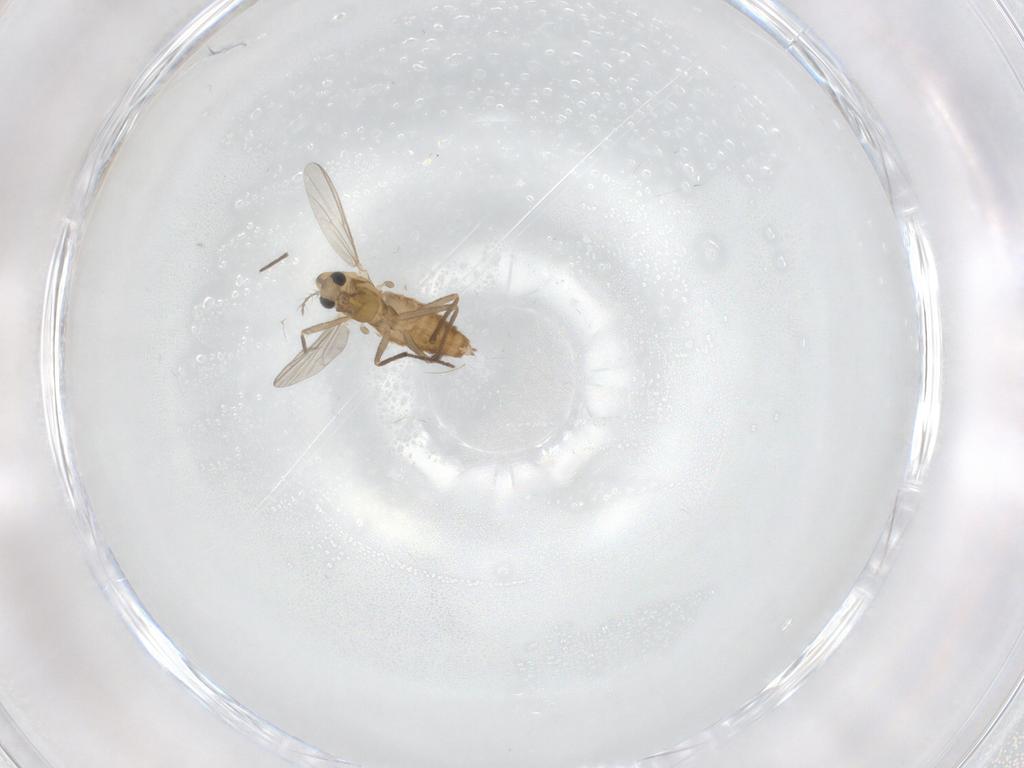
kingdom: Animalia
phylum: Arthropoda
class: Insecta
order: Diptera
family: Chironomidae
